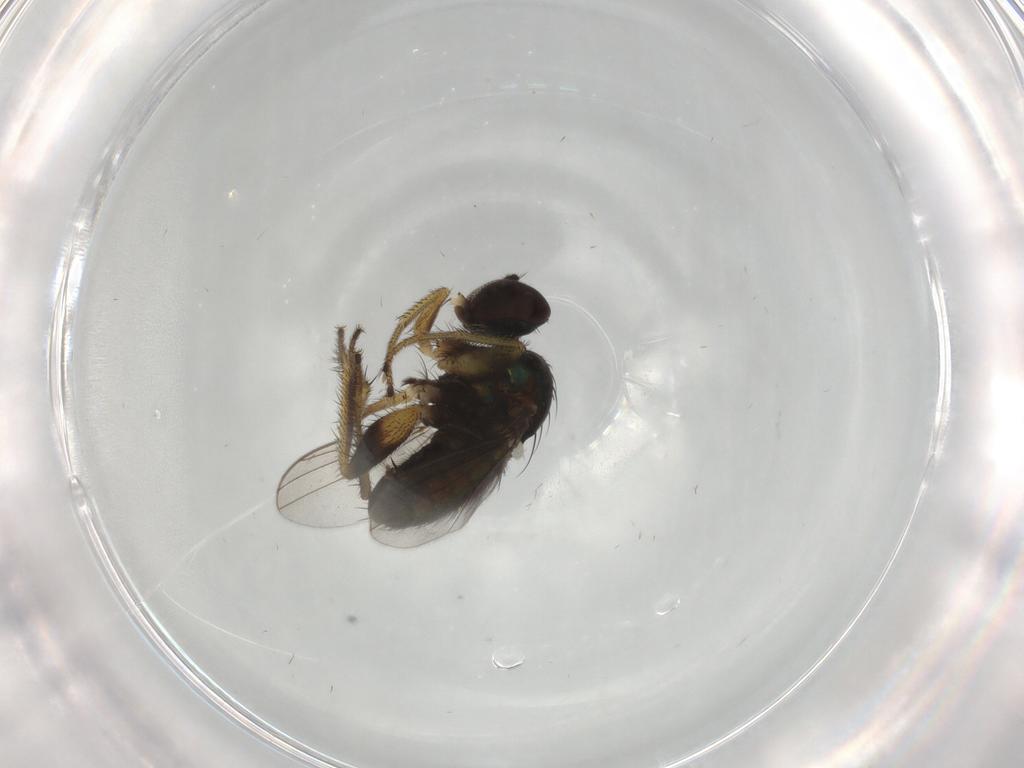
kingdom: Animalia
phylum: Arthropoda
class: Insecta
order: Diptera
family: Dolichopodidae
